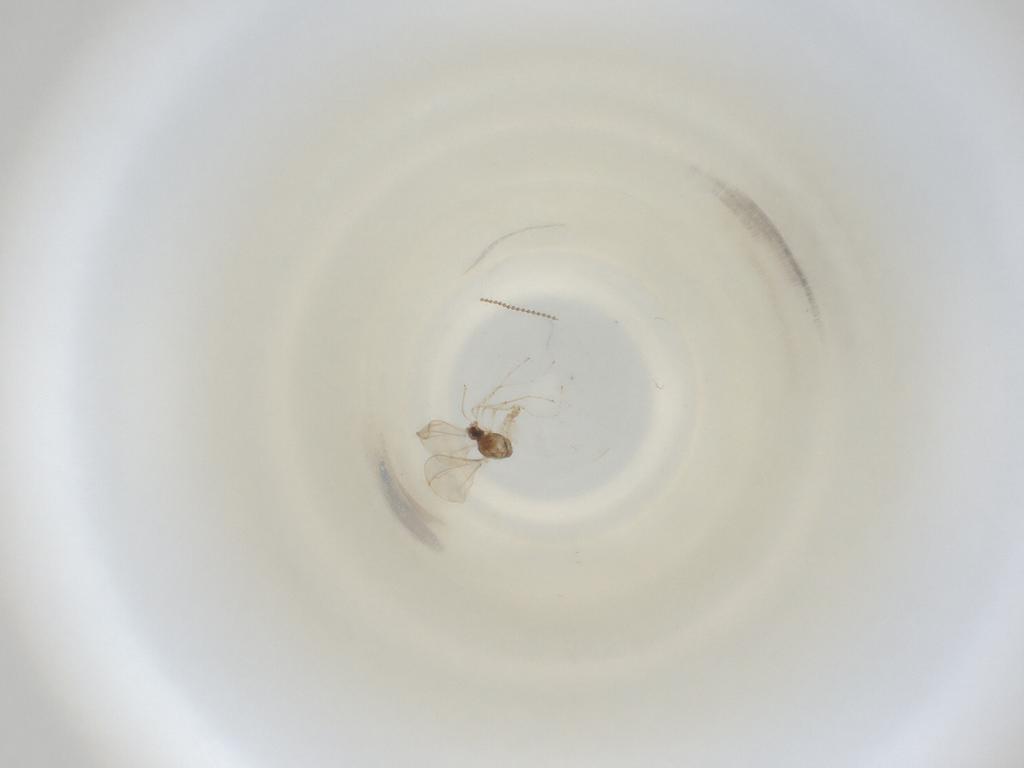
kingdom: Animalia
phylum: Arthropoda
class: Insecta
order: Diptera
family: Cecidomyiidae
